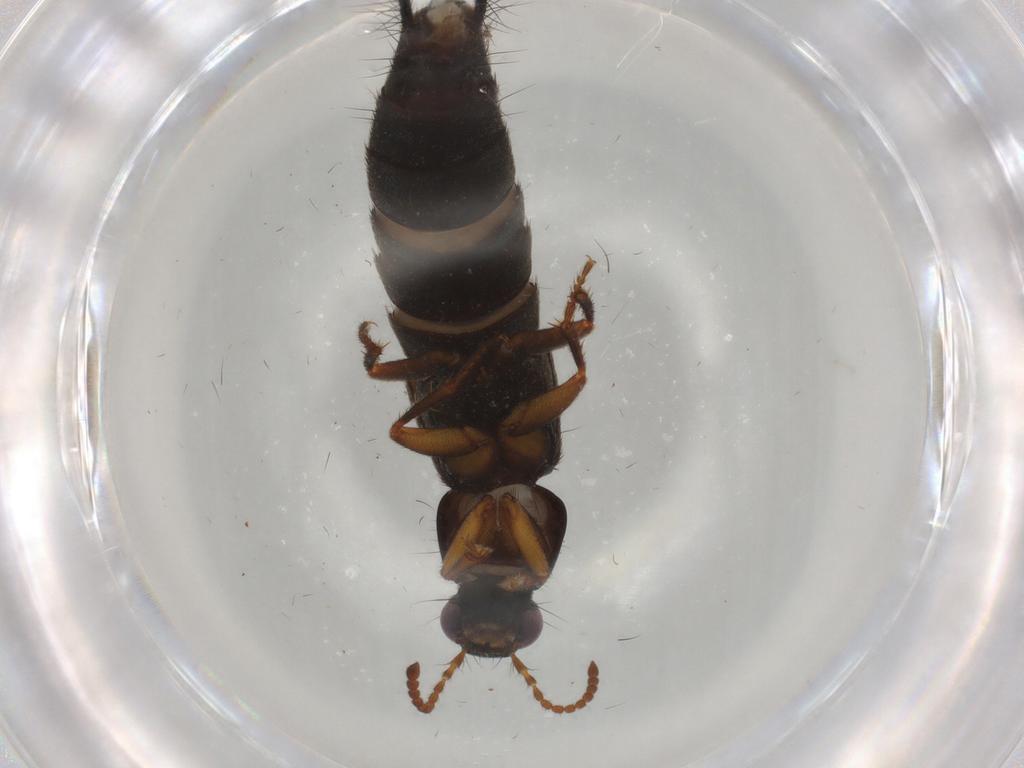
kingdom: Animalia
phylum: Arthropoda
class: Insecta
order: Coleoptera
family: Staphylinidae
